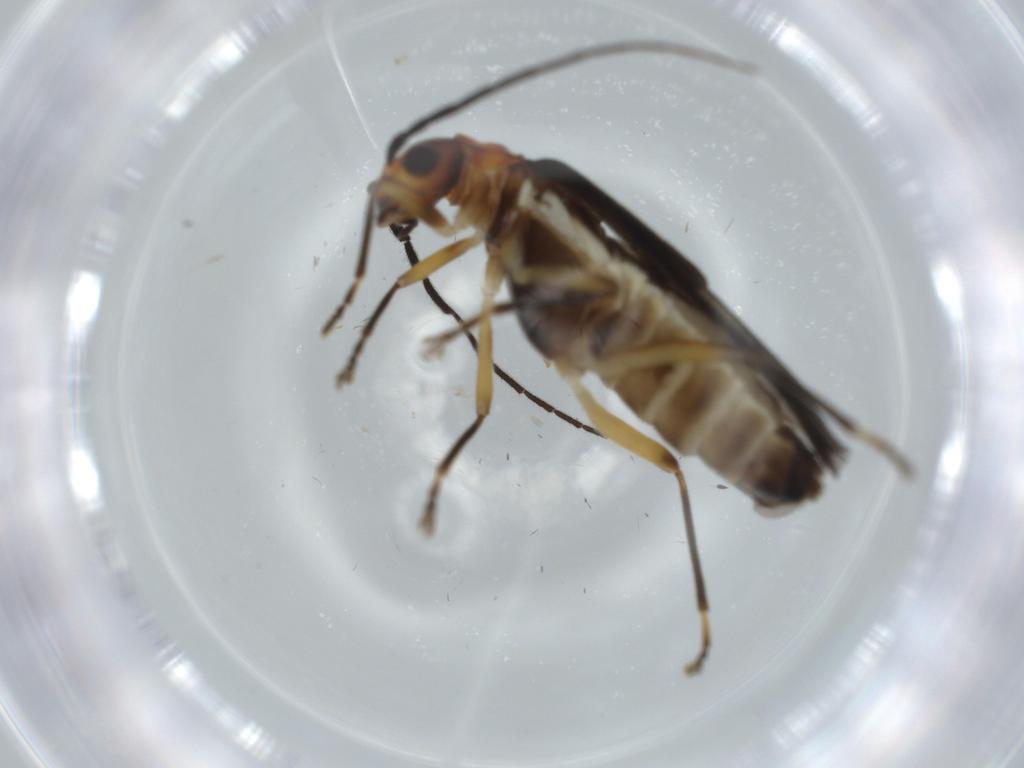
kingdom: Animalia
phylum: Arthropoda
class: Insecta
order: Coleoptera
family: Cantharidae
